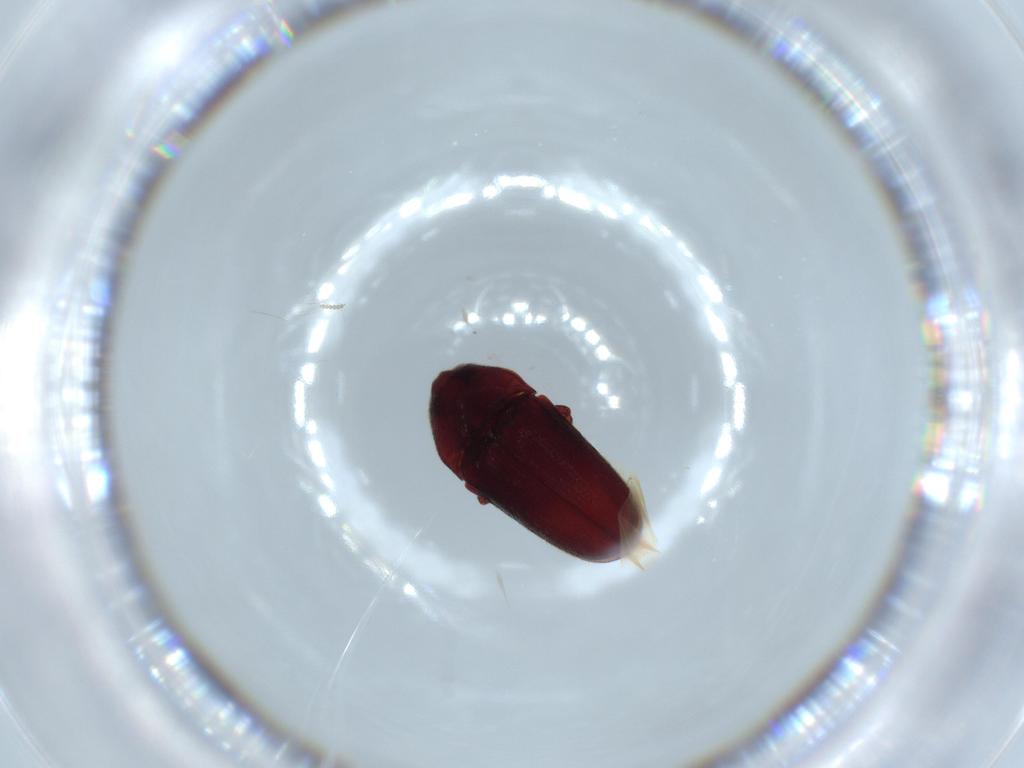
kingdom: Animalia
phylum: Arthropoda
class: Insecta
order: Coleoptera
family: Throscidae
